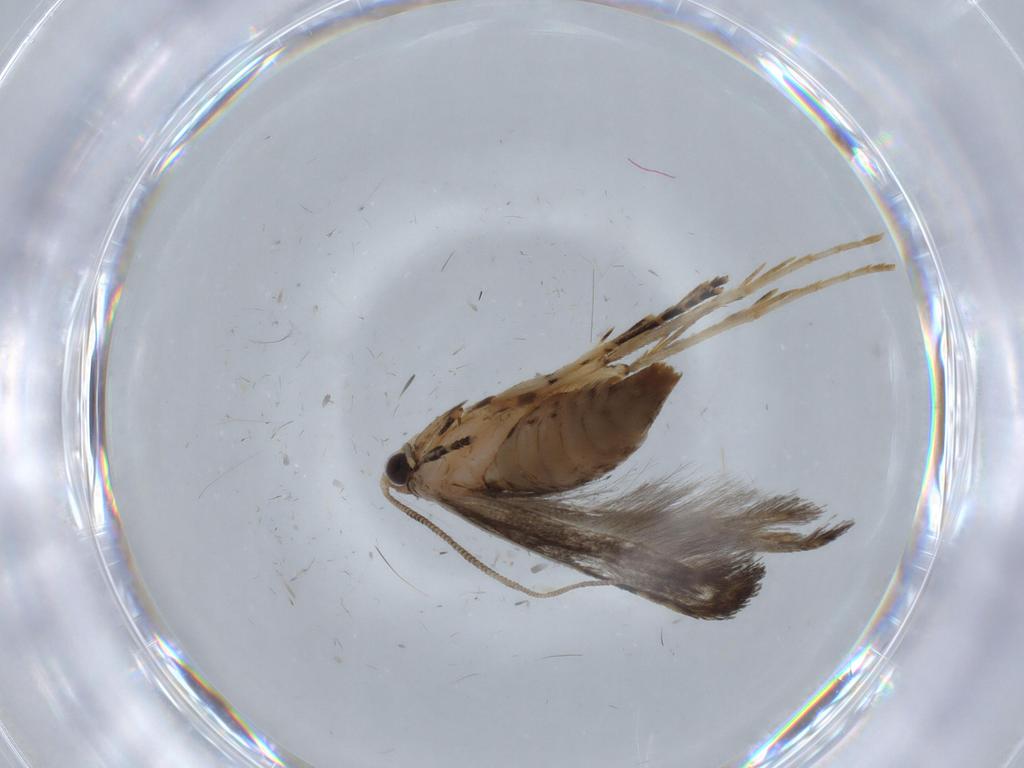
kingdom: Animalia
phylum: Arthropoda
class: Insecta
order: Lepidoptera
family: Tineidae
